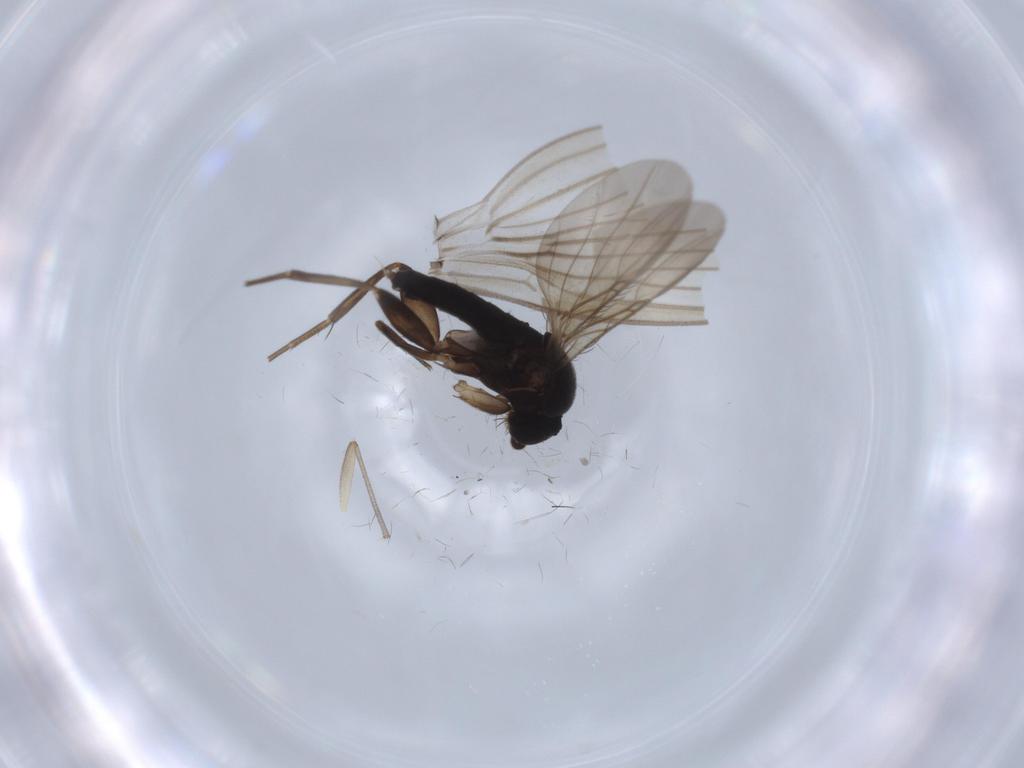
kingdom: Animalia
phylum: Arthropoda
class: Insecta
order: Diptera
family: Phoridae
